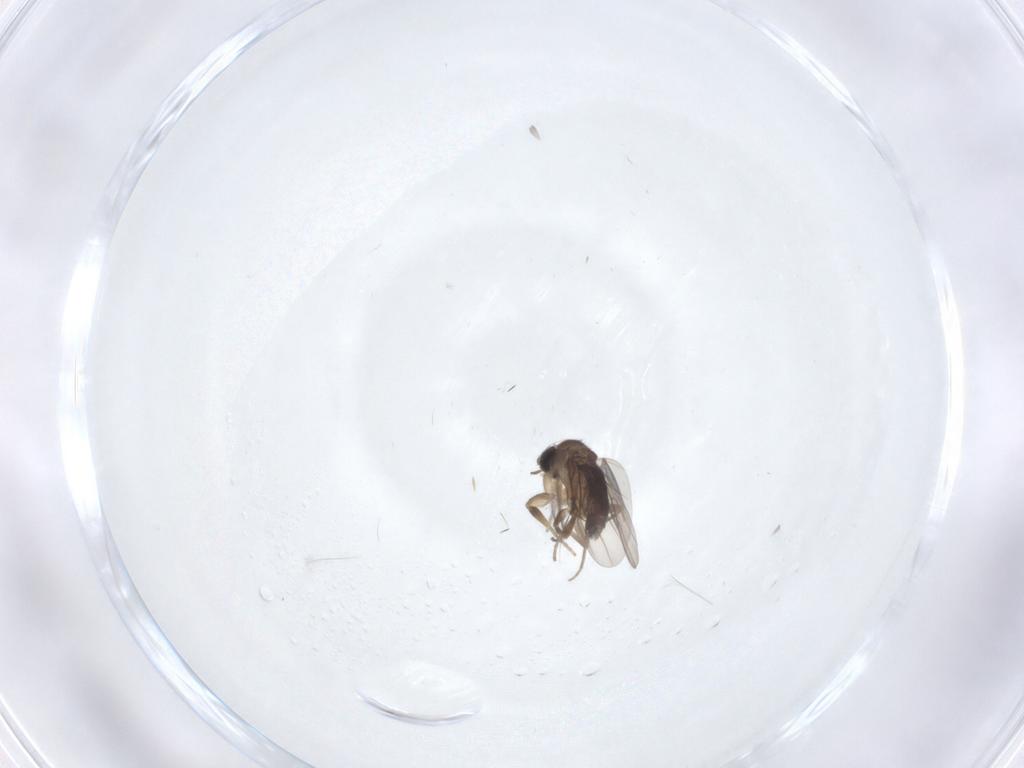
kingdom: Animalia
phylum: Arthropoda
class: Insecta
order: Diptera
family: Phoridae
